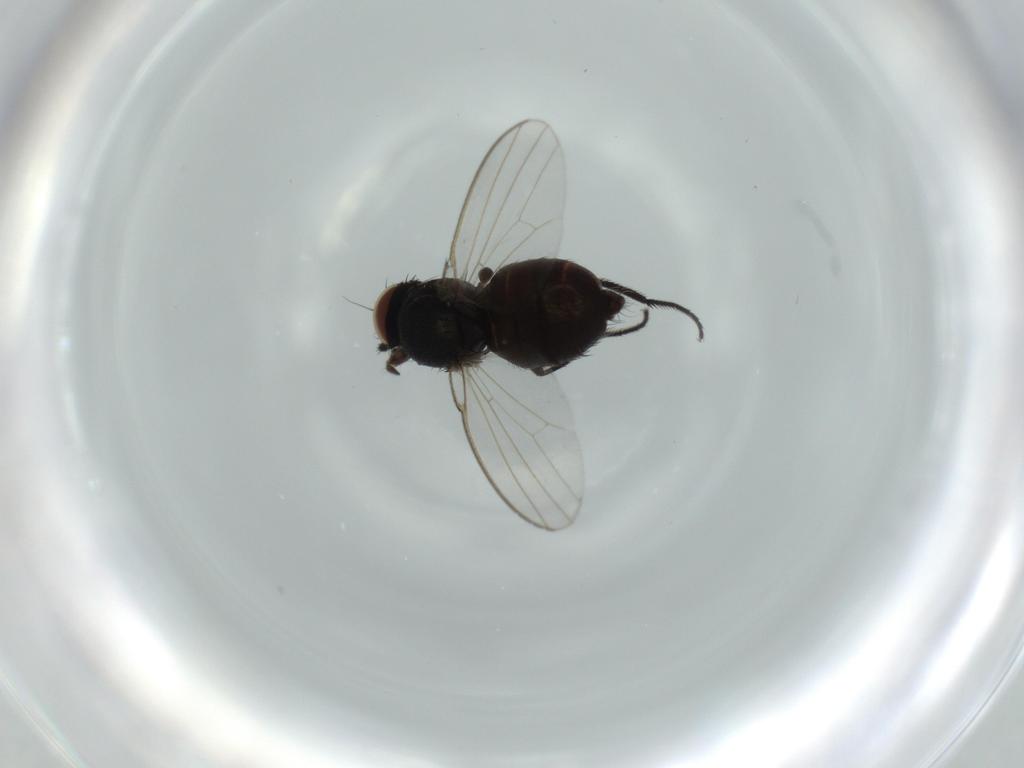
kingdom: Animalia
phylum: Arthropoda
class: Insecta
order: Diptera
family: Milichiidae
